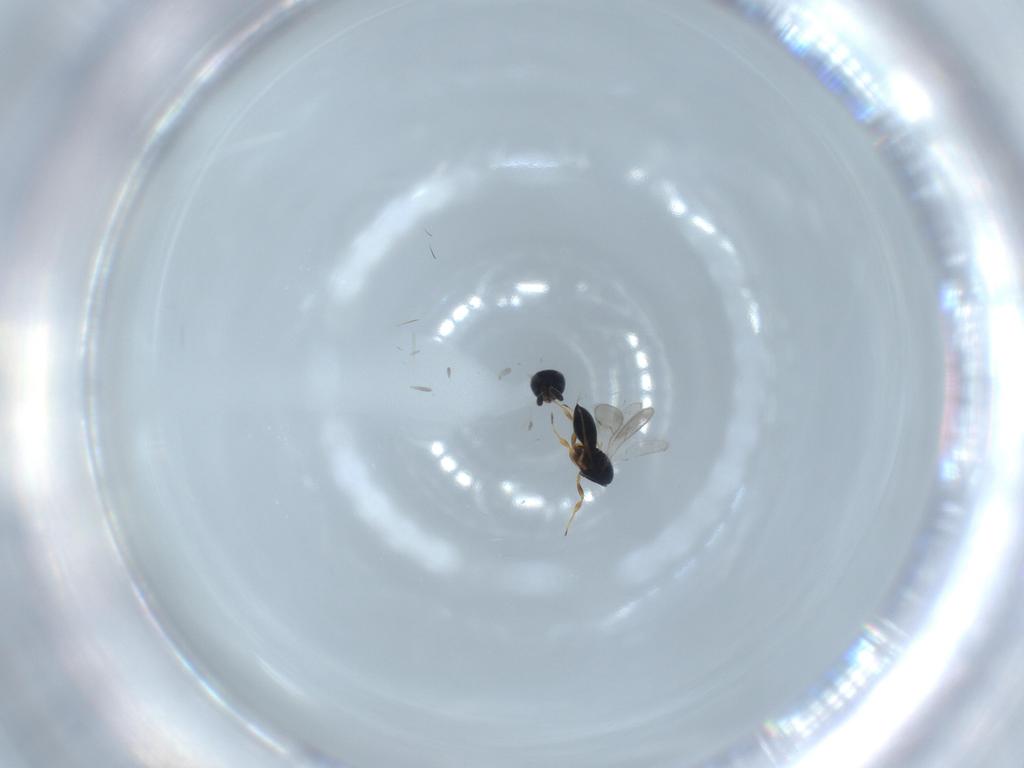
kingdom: Animalia
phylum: Arthropoda
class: Insecta
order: Hymenoptera
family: Scelionidae
